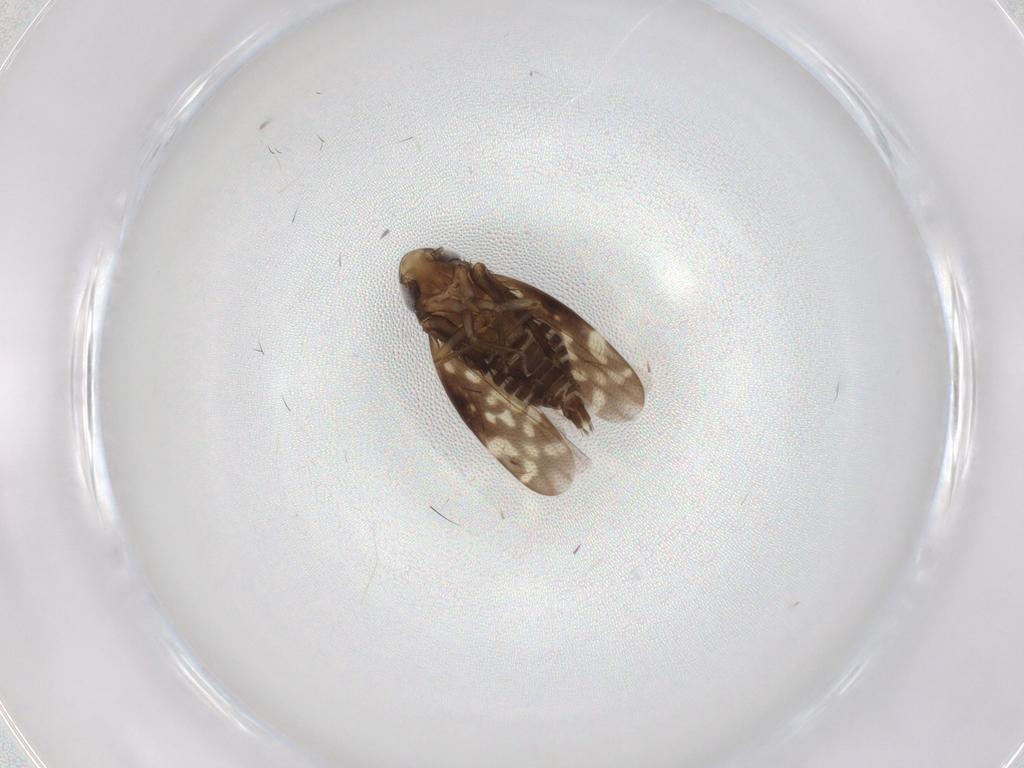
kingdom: Animalia
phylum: Arthropoda
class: Insecta
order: Hemiptera
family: Cicadellidae
